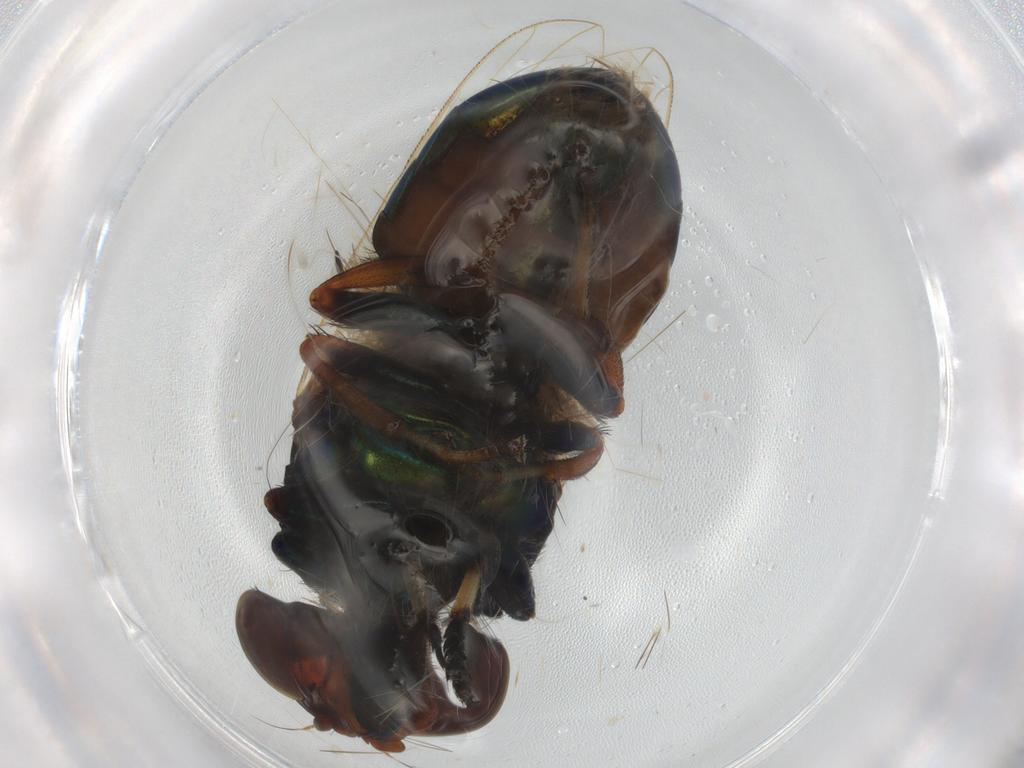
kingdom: Animalia
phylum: Arthropoda
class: Insecta
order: Diptera
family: Ulidiidae
